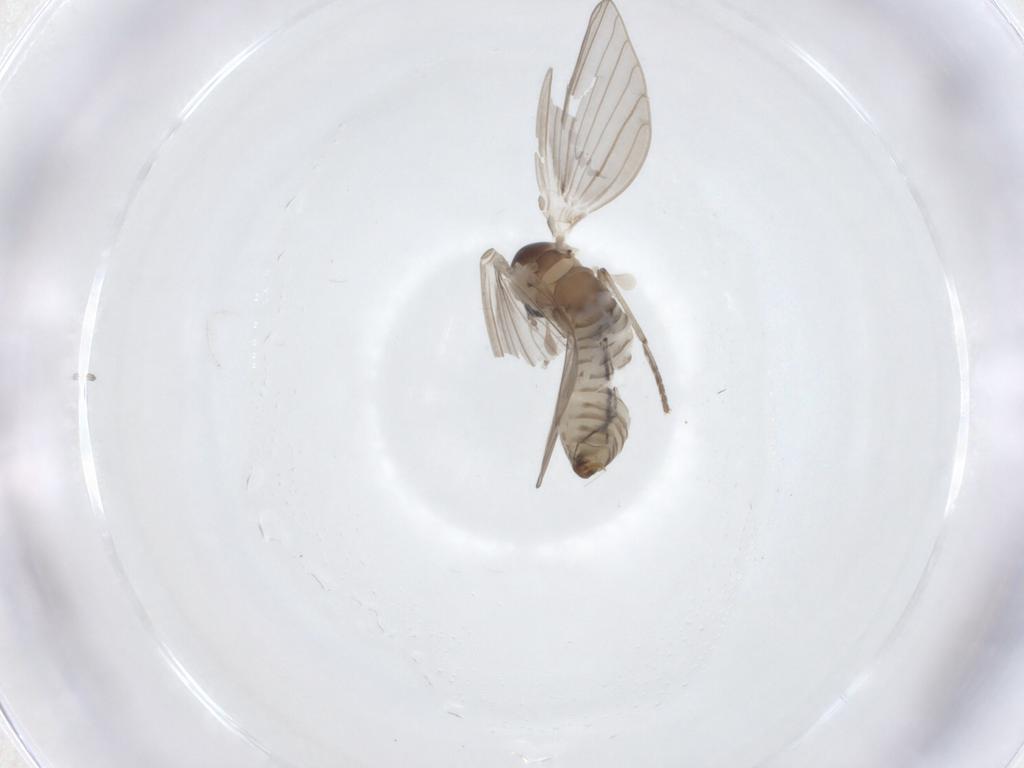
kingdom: Animalia
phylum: Arthropoda
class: Insecta
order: Diptera
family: Psychodidae
